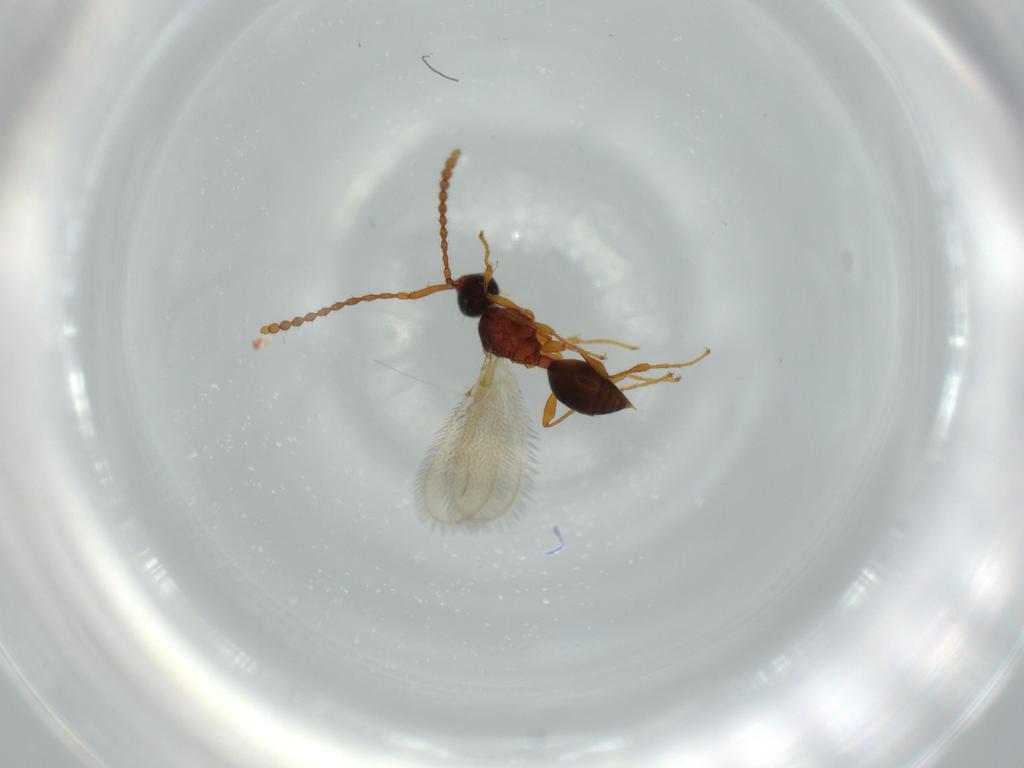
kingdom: Animalia
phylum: Arthropoda
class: Insecta
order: Hymenoptera
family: Diapriidae
